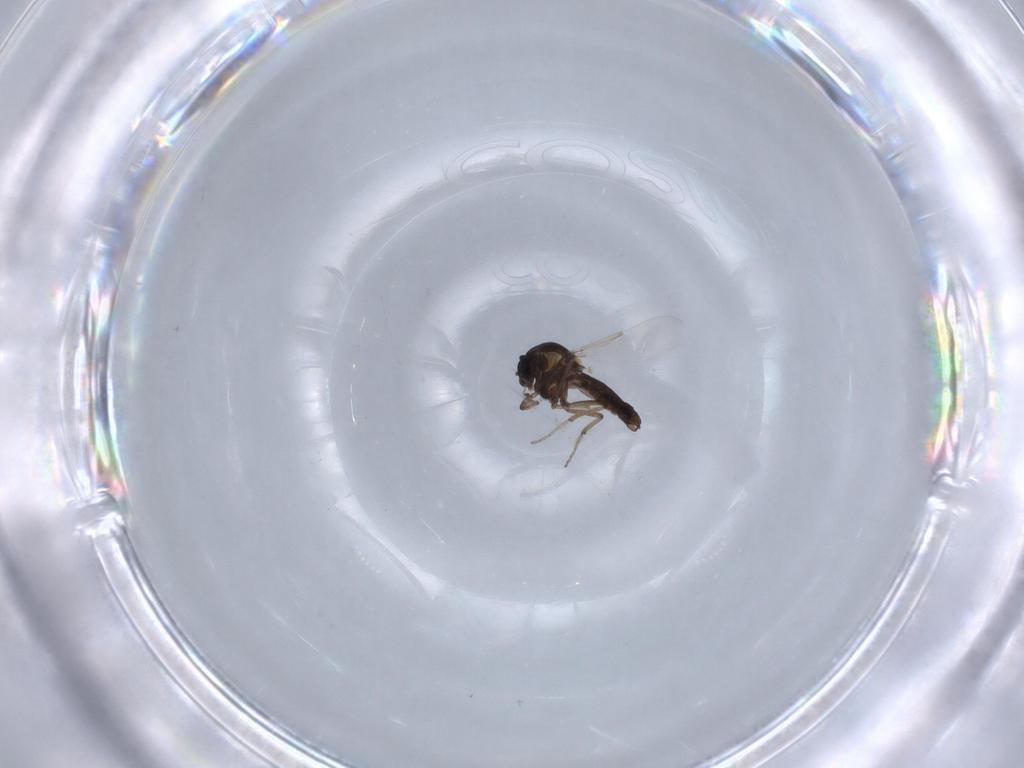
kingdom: Animalia
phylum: Arthropoda
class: Insecta
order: Diptera
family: Ceratopogonidae
